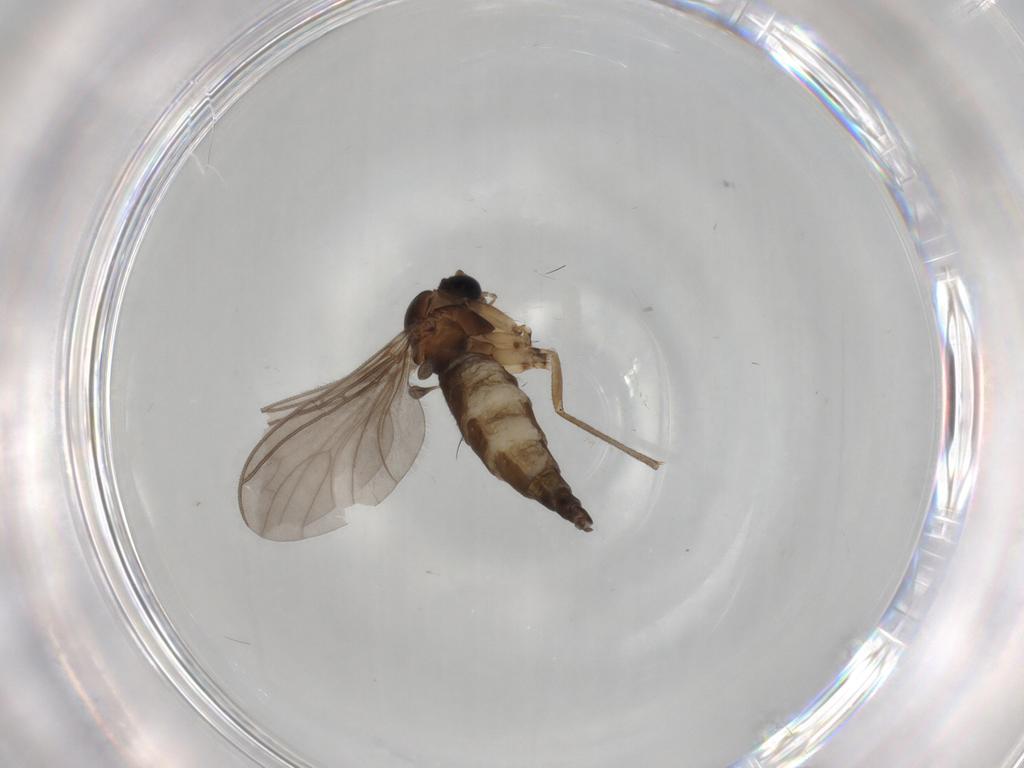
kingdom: Animalia
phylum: Arthropoda
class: Insecta
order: Diptera
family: Sciaridae
